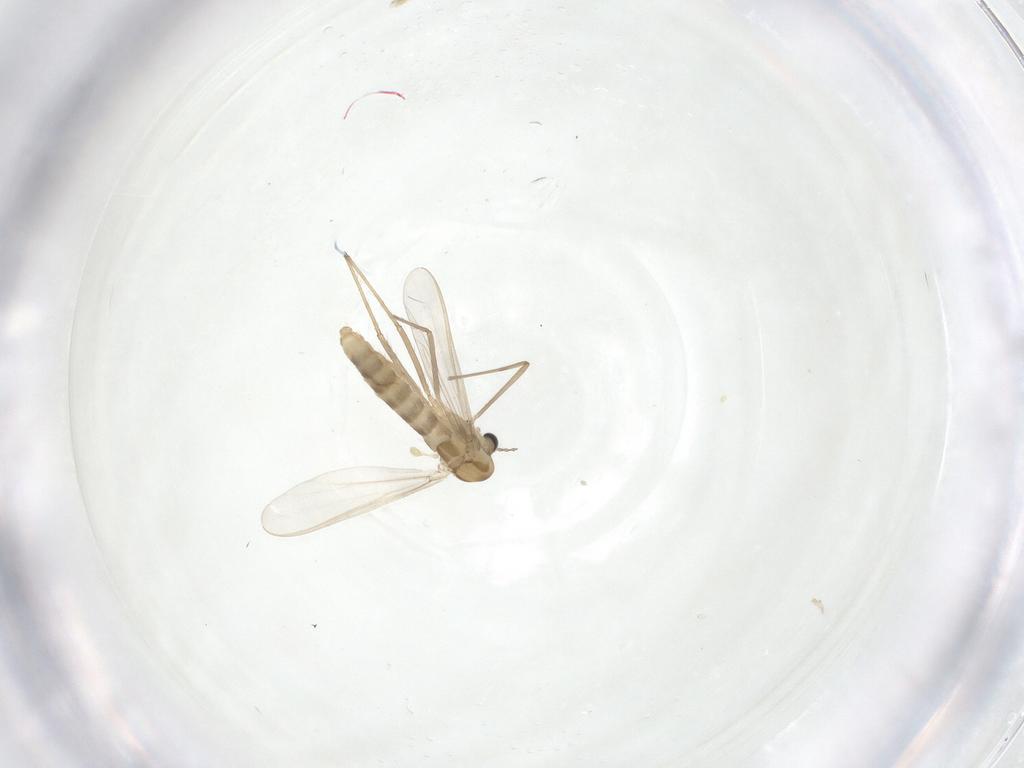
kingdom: Animalia
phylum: Arthropoda
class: Insecta
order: Diptera
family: Chironomidae
